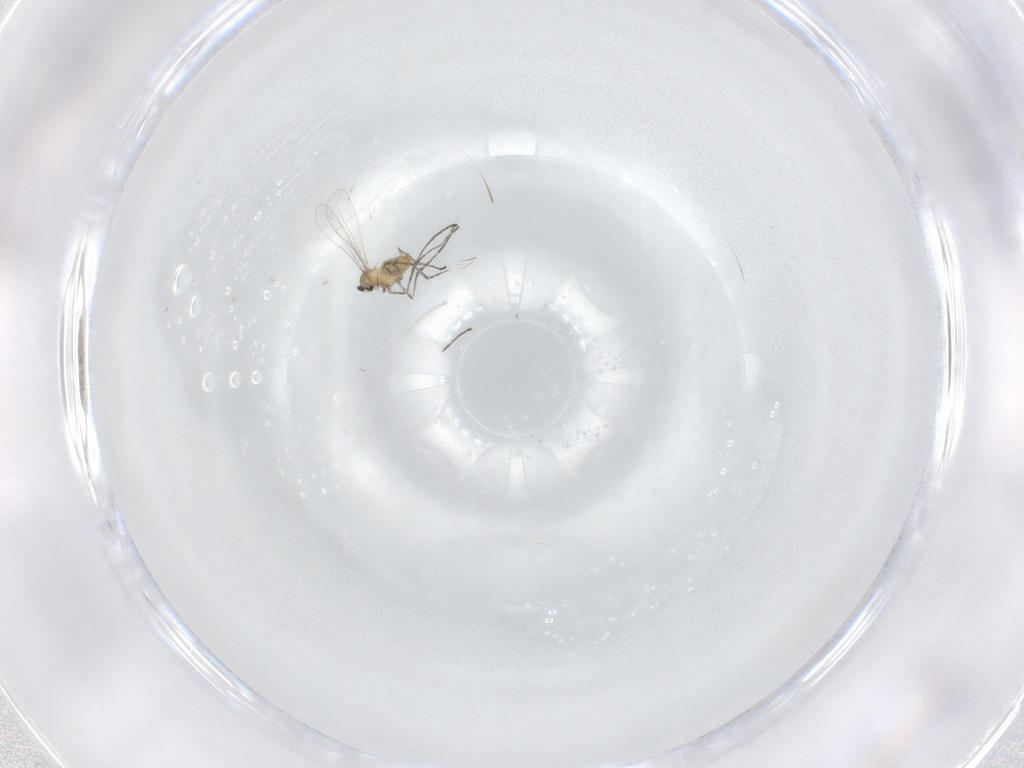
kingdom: Animalia
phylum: Arthropoda
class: Insecta
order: Diptera
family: Cecidomyiidae
